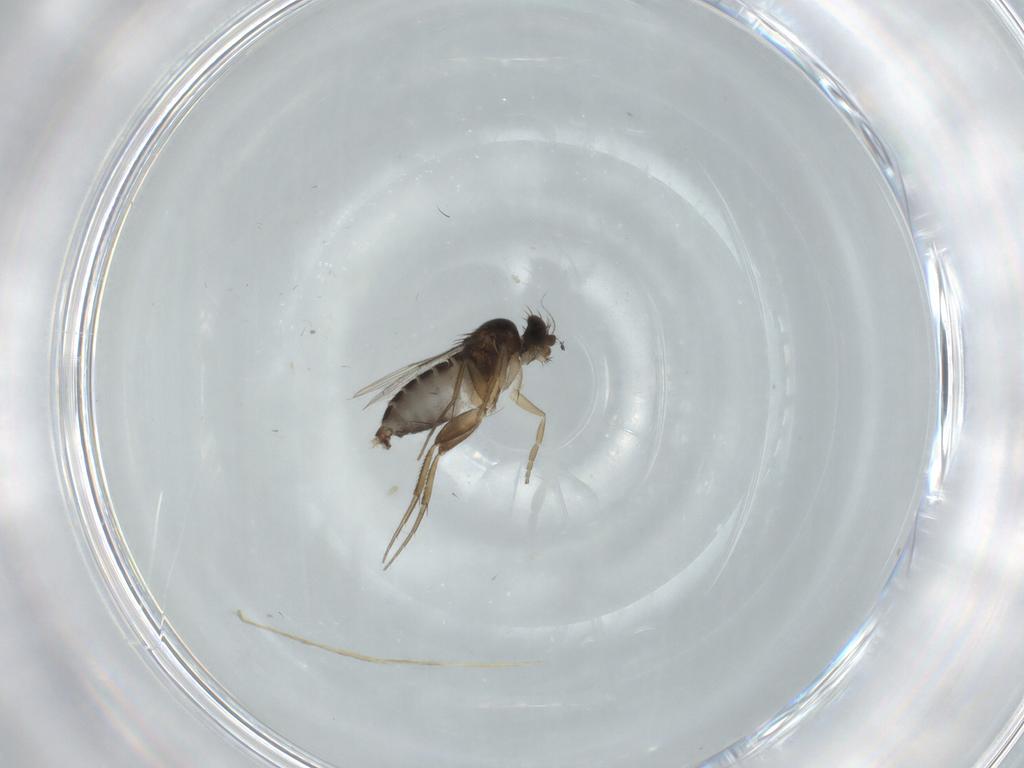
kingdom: Animalia
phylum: Arthropoda
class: Insecta
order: Diptera
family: Phoridae
